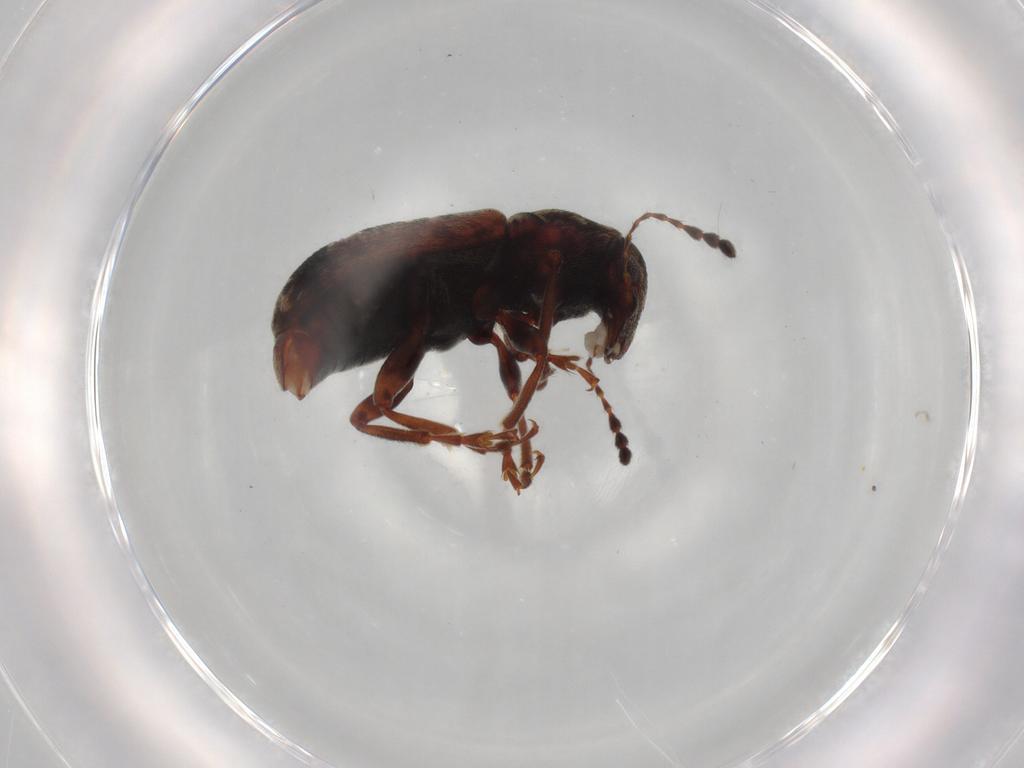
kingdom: Animalia
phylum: Arthropoda
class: Insecta
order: Coleoptera
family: Anthribidae
